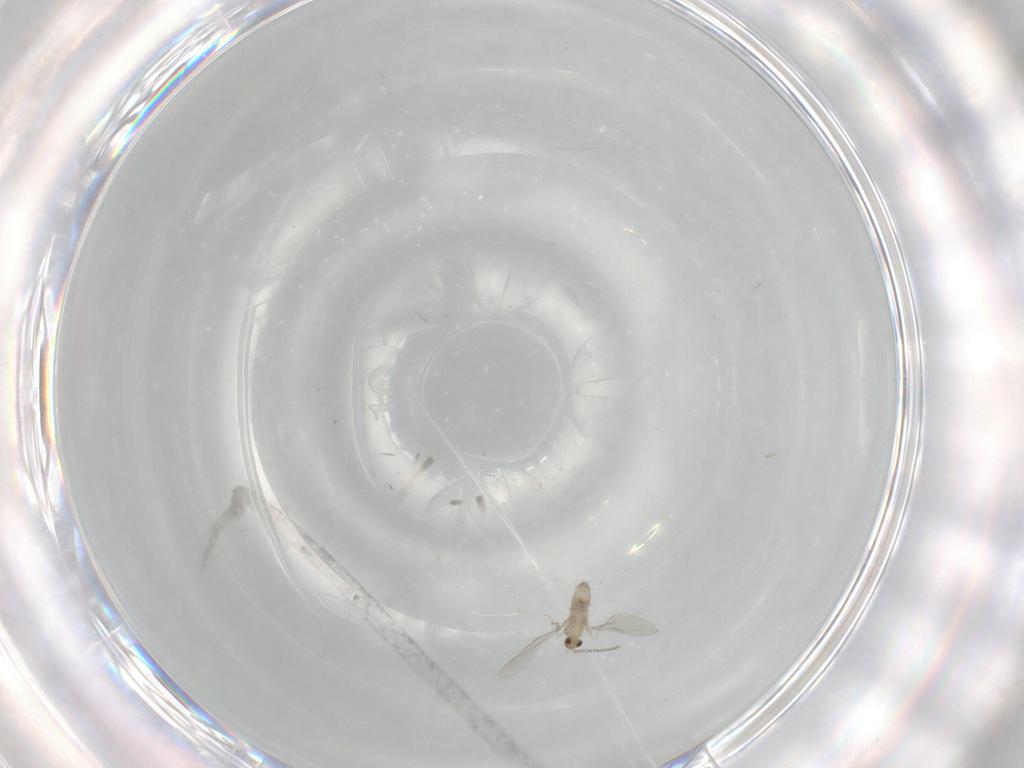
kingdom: Animalia
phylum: Arthropoda
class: Insecta
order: Diptera
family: Cecidomyiidae
